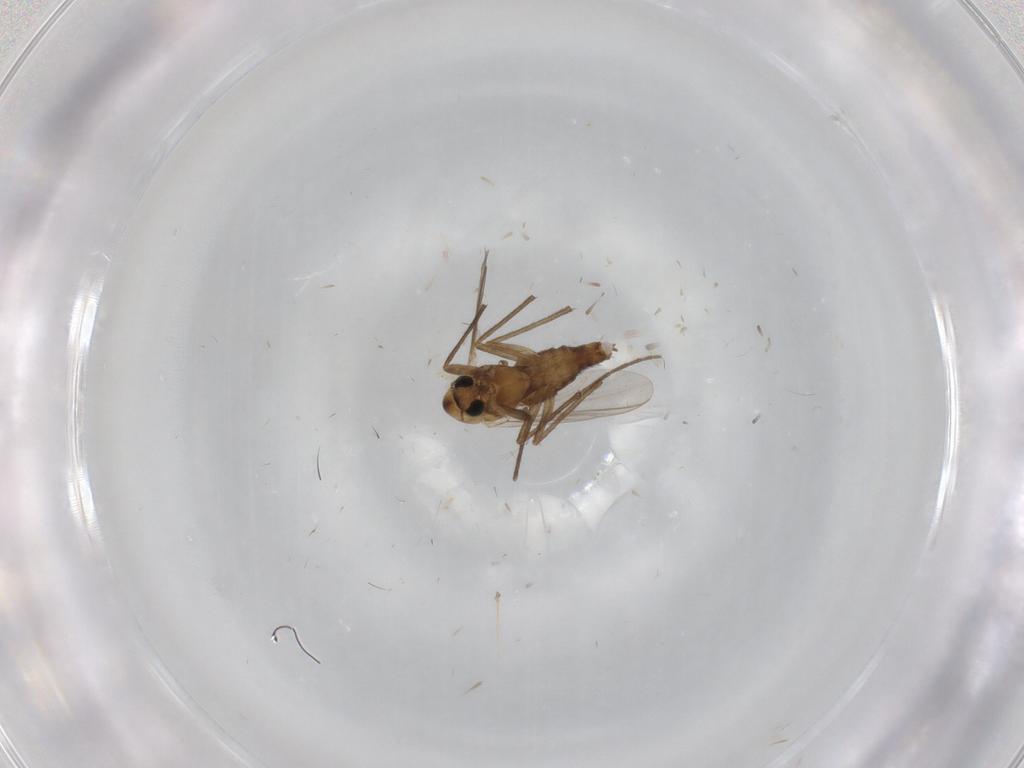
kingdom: Animalia
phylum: Arthropoda
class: Insecta
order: Diptera
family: Chironomidae
